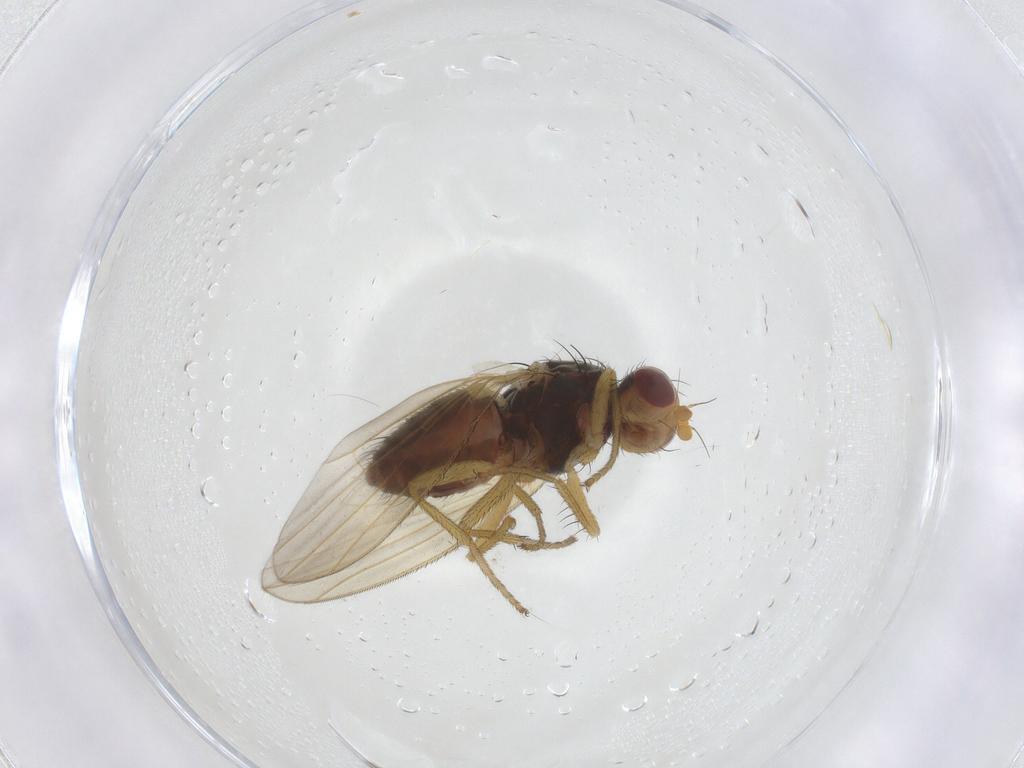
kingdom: Animalia
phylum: Arthropoda
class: Insecta
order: Diptera
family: Heleomyzidae
